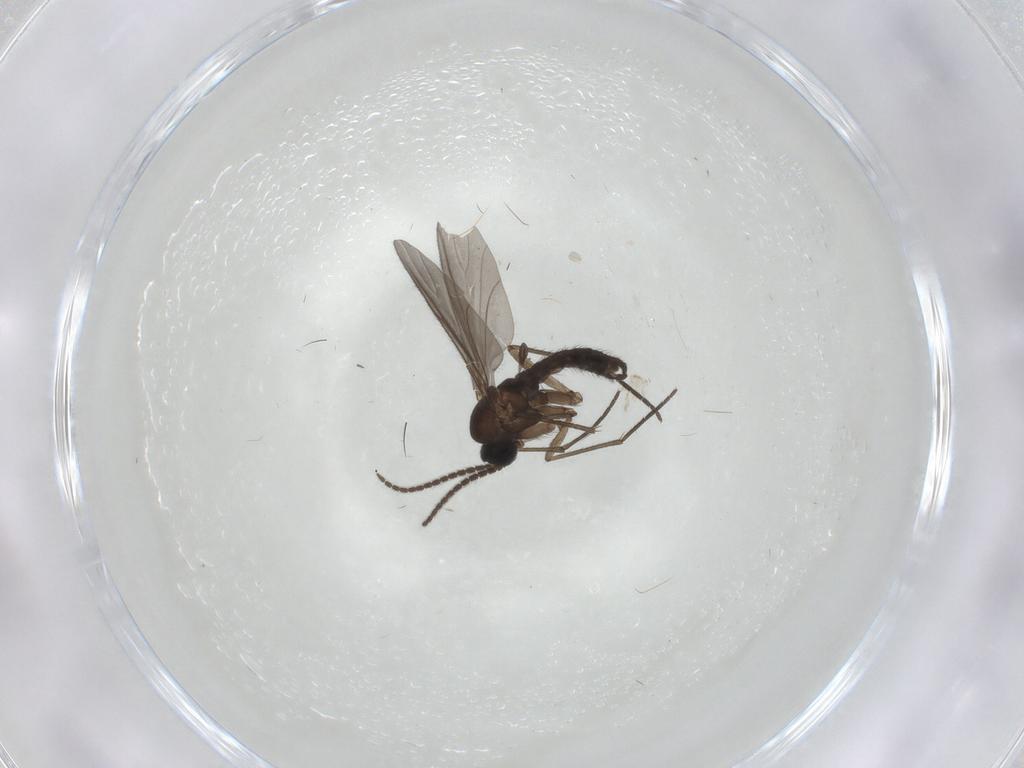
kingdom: Animalia
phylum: Arthropoda
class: Insecta
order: Diptera
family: Sciaridae
